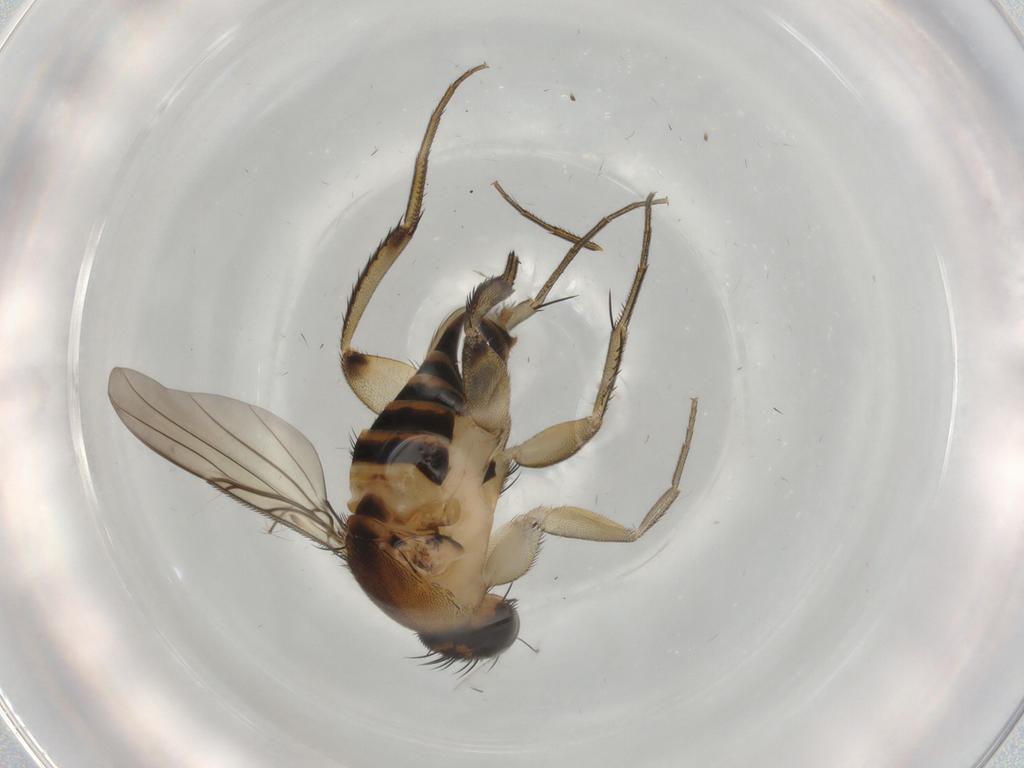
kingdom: Animalia
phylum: Arthropoda
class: Insecta
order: Diptera
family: Phoridae
